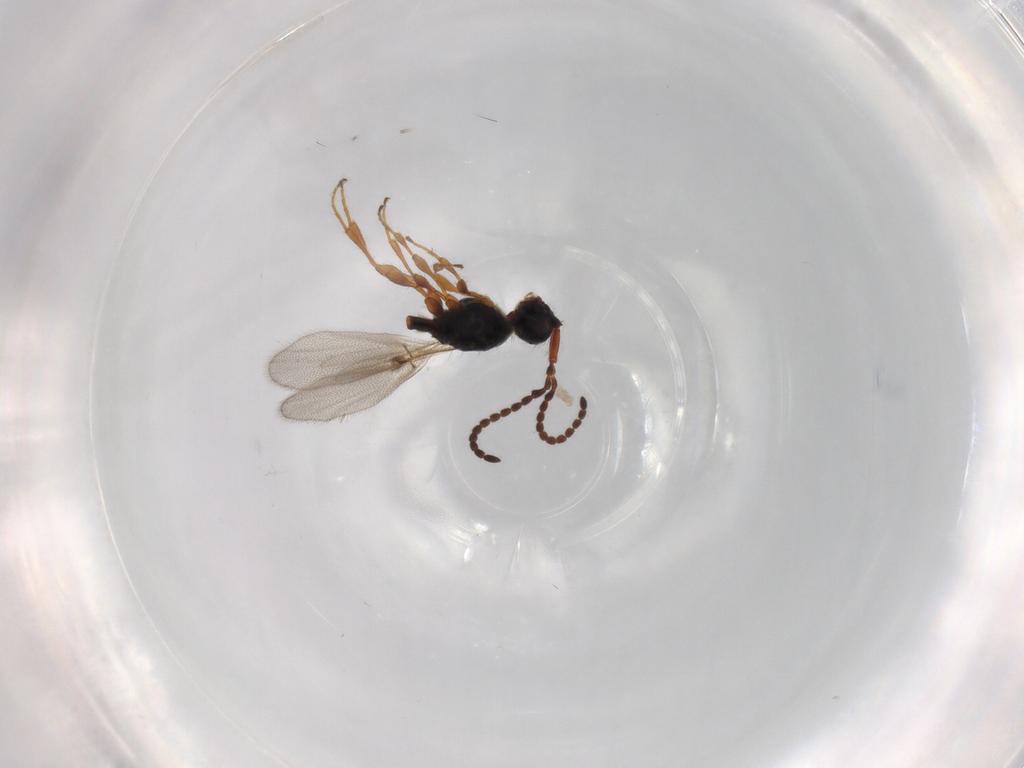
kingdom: Animalia
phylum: Arthropoda
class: Insecta
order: Hymenoptera
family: Diapriidae
